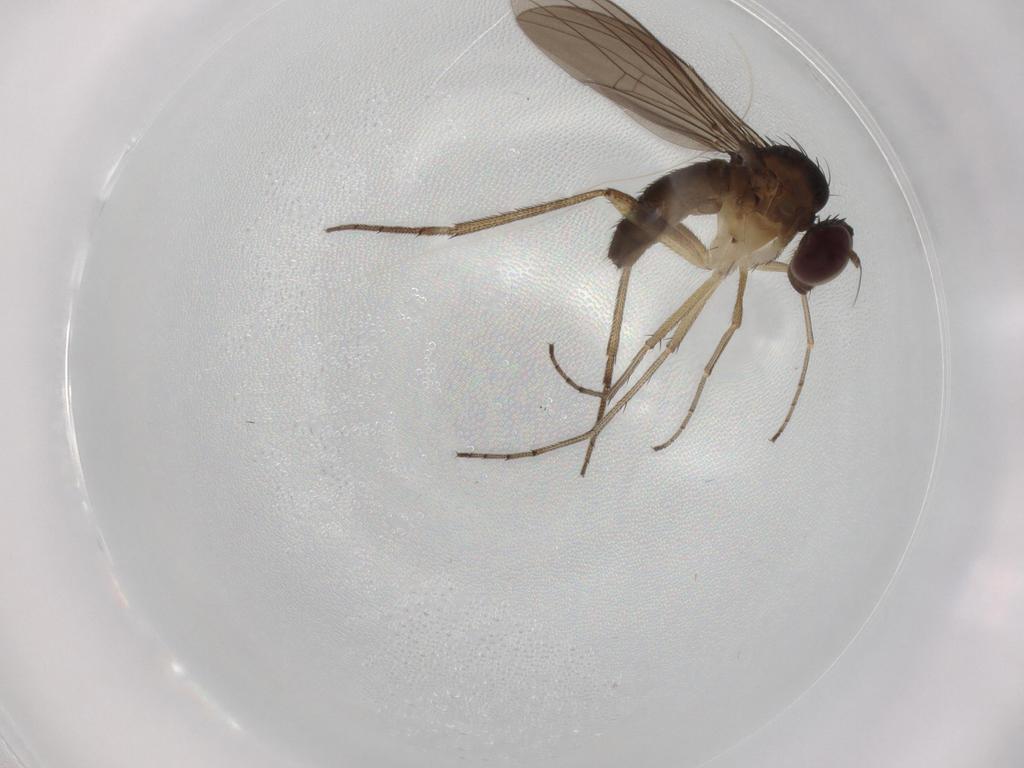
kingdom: Animalia
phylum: Arthropoda
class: Insecta
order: Diptera
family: Dolichopodidae
